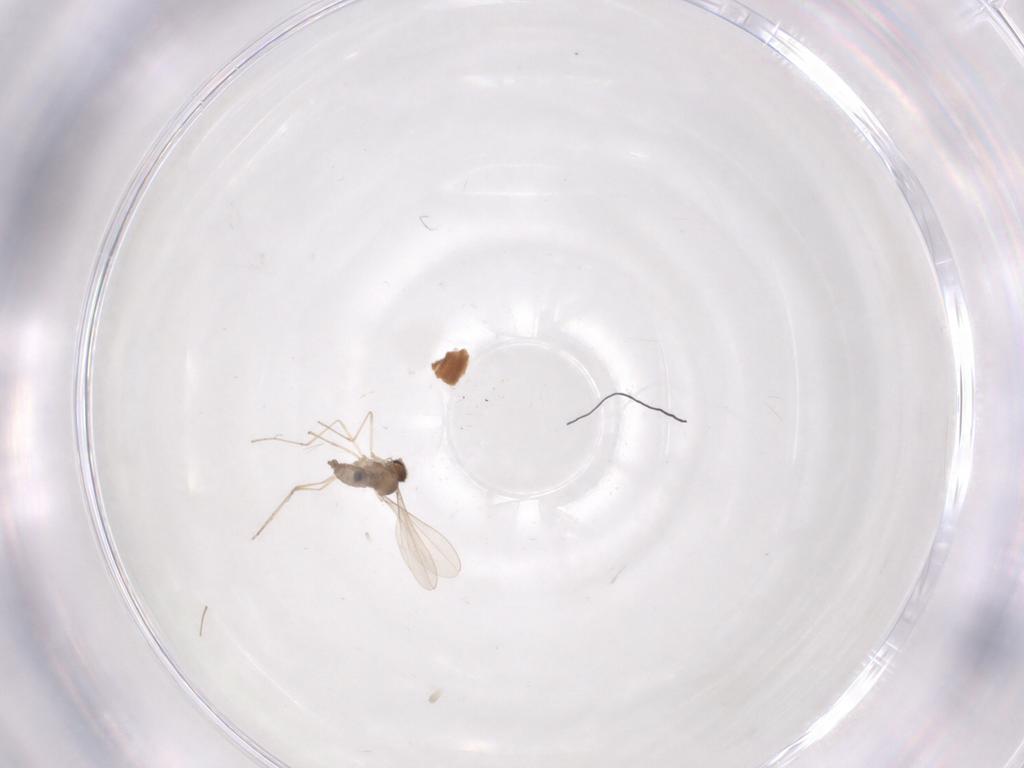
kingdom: Animalia
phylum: Arthropoda
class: Insecta
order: Diptera
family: Cecidomyiidae
